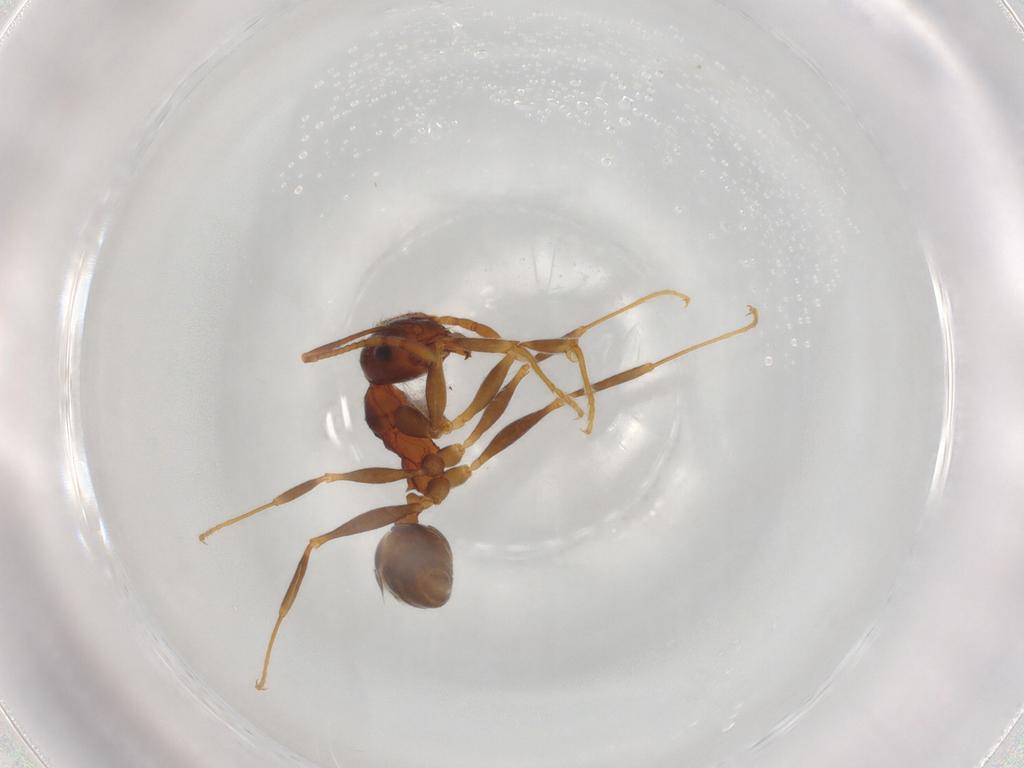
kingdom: Animalia
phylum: Arthropoda
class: Insecta
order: Hymenoptera
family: Formicidae
